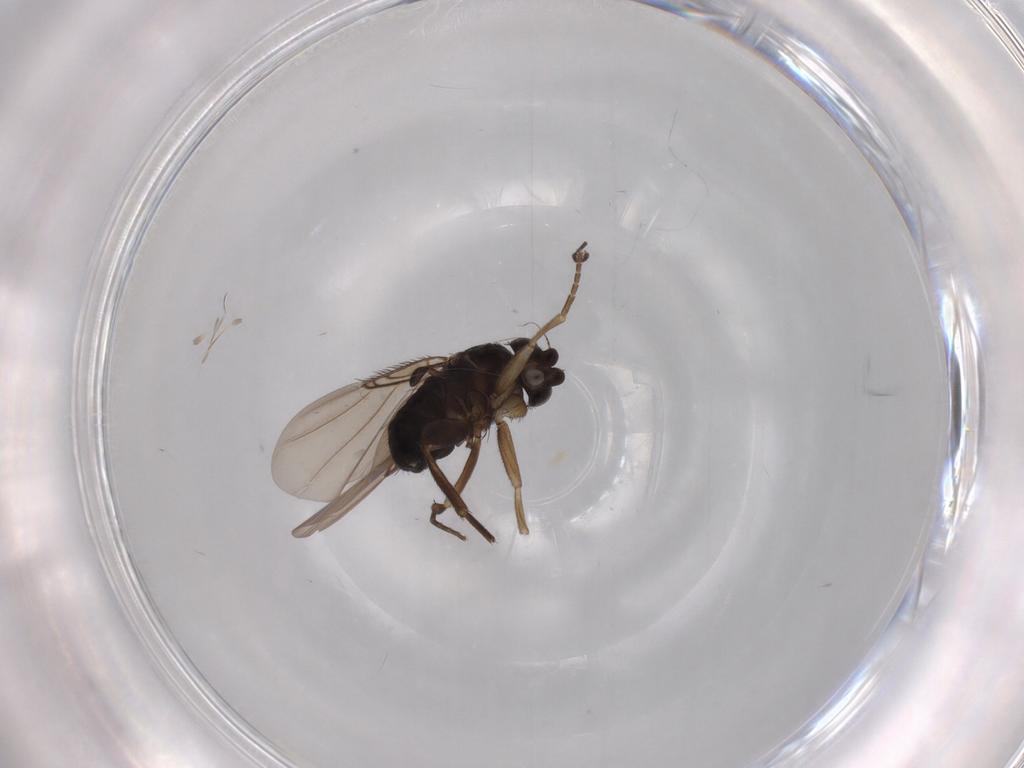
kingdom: Animalia
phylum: Arthropoda
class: Insecta
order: Diptera
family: Phoridae
